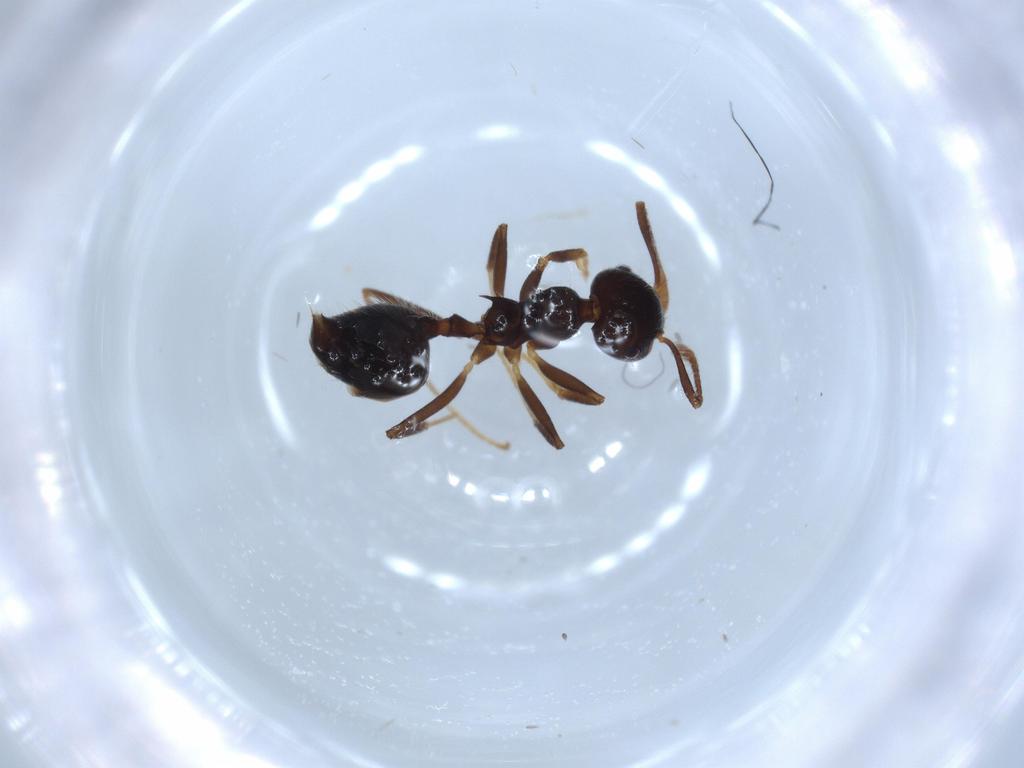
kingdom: Animalia
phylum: Arthropoda
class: Insecta
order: Hymenoptera
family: Formicidae
